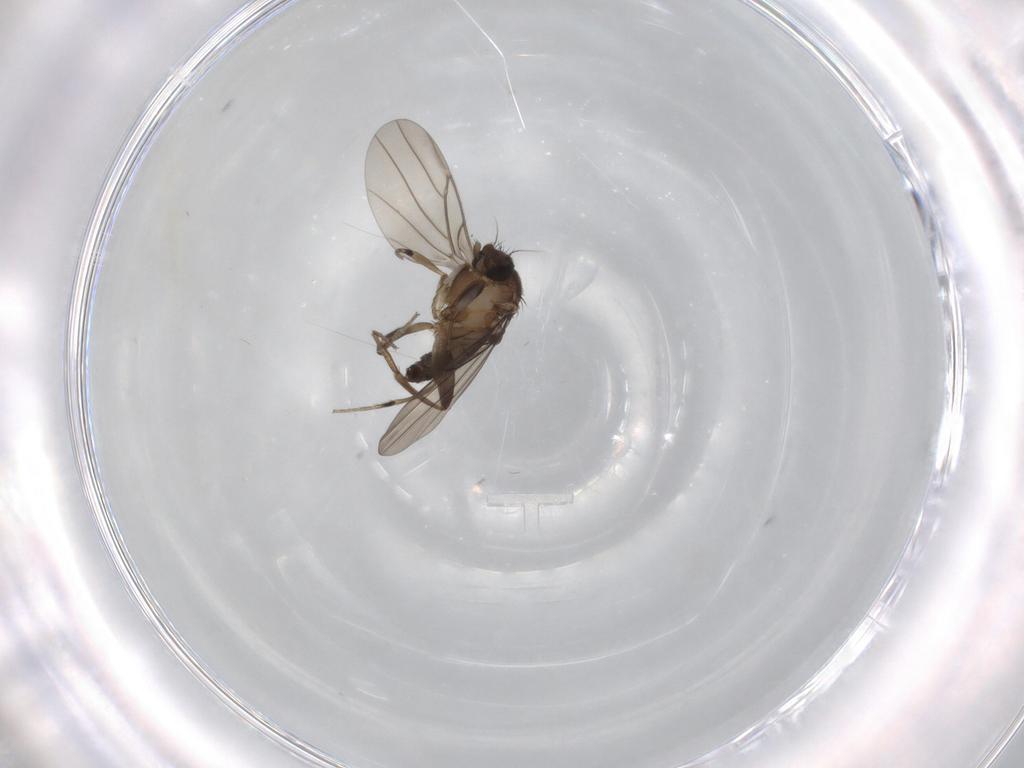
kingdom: Animalia
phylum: Arthropoda
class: Insecta
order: Diptera
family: Phoridae
